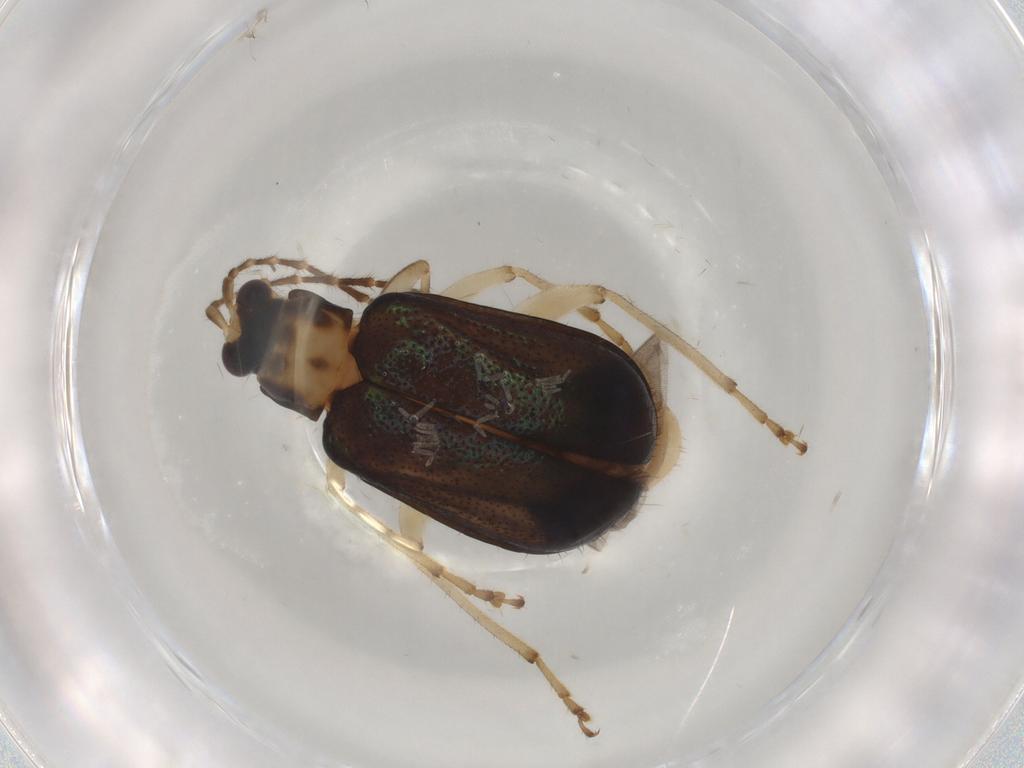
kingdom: Animalia
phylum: Arthropoda
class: Insecta
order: Coleoptera
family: Chrysomelidae
